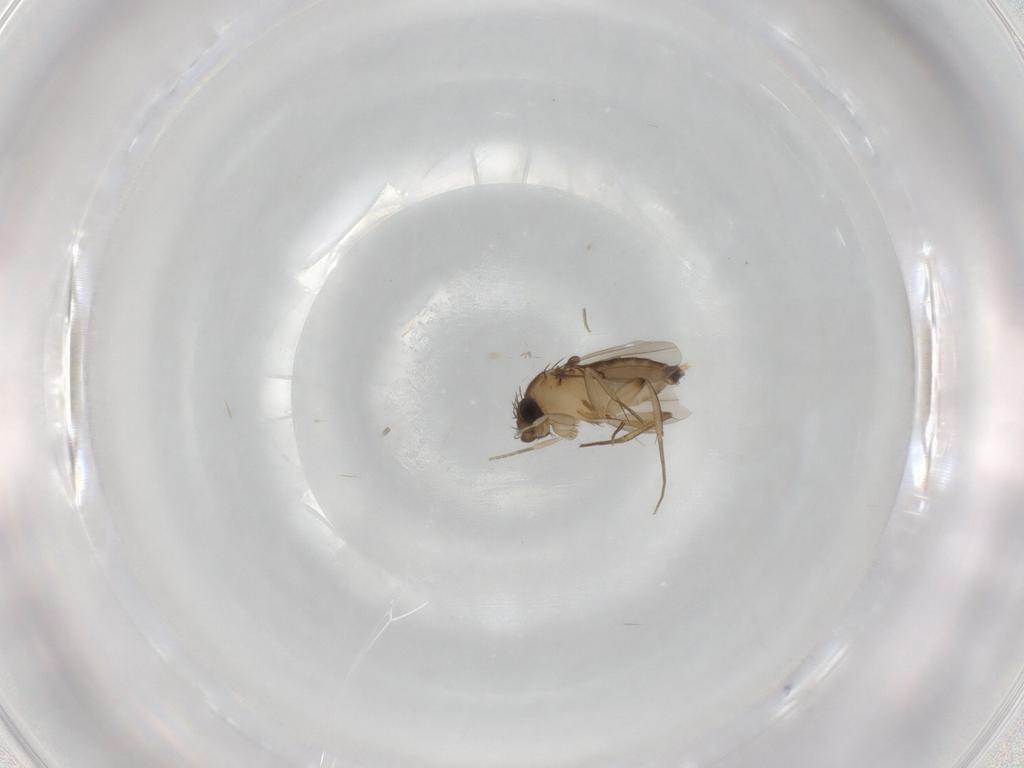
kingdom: Animalia
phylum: Arthropoda
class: Insecta
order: Diptera
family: Phoridae
